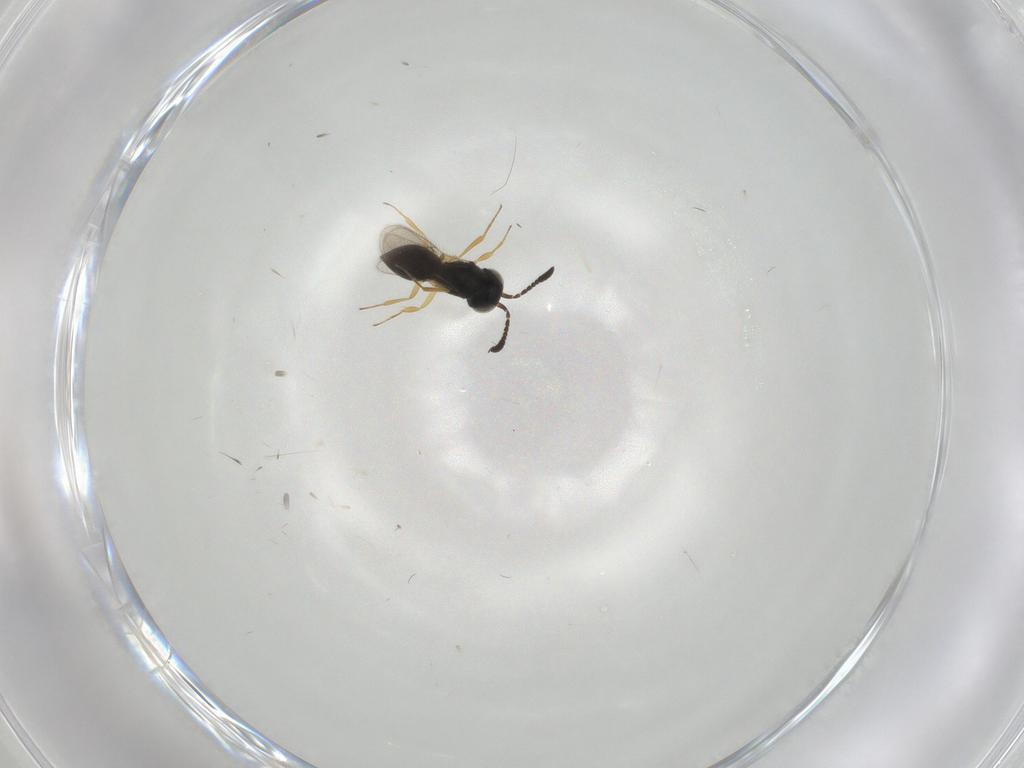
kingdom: Animalia
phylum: Arthropoda
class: Insecta
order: Hymenoptera
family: Scelionidae
